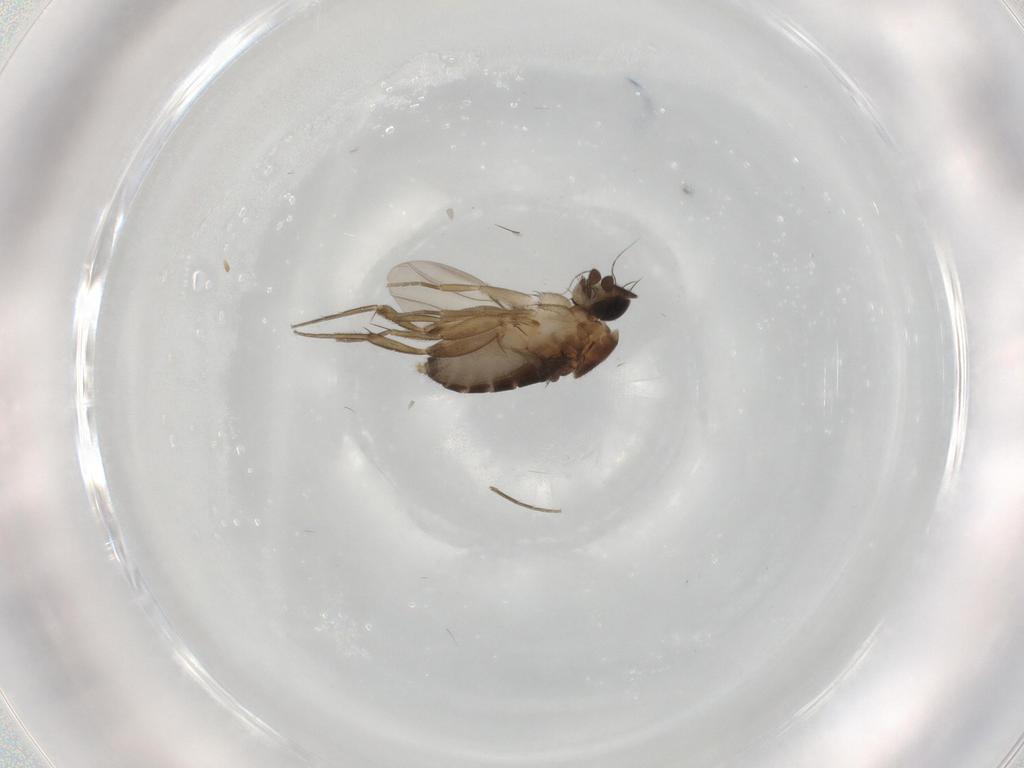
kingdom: Animalia
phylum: Arthropoda
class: Insecta
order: Diptera
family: Phoridae
